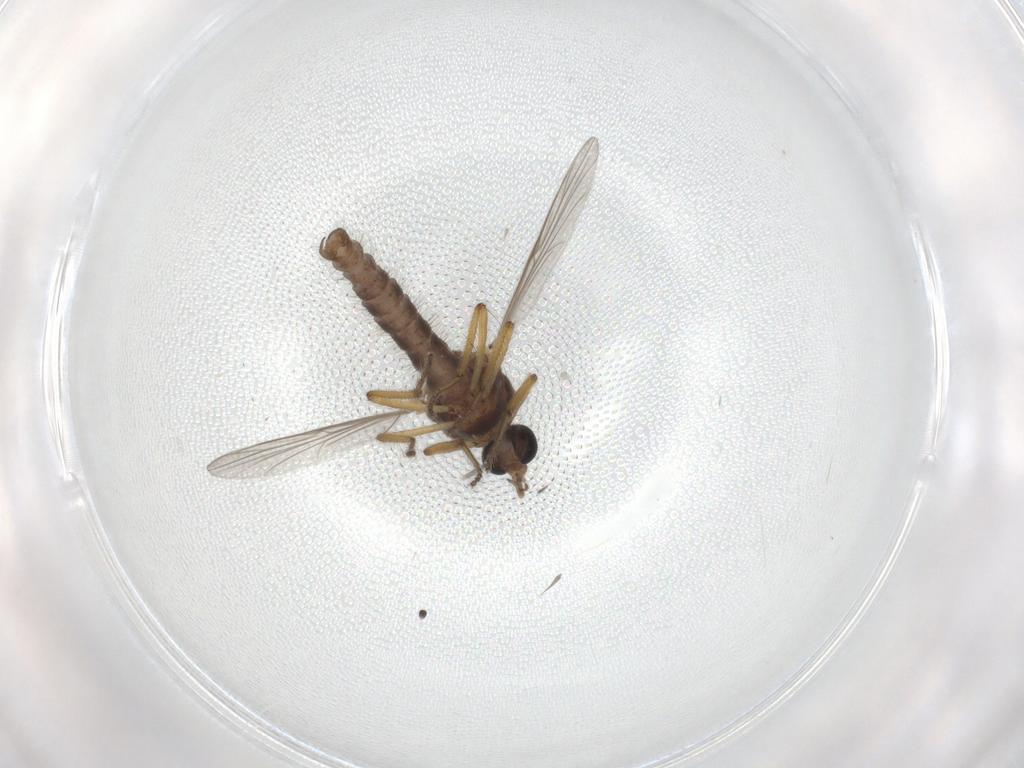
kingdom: Animalia
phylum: Arthropoda
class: Insecta
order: Diptera
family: Ceratopogonidae
